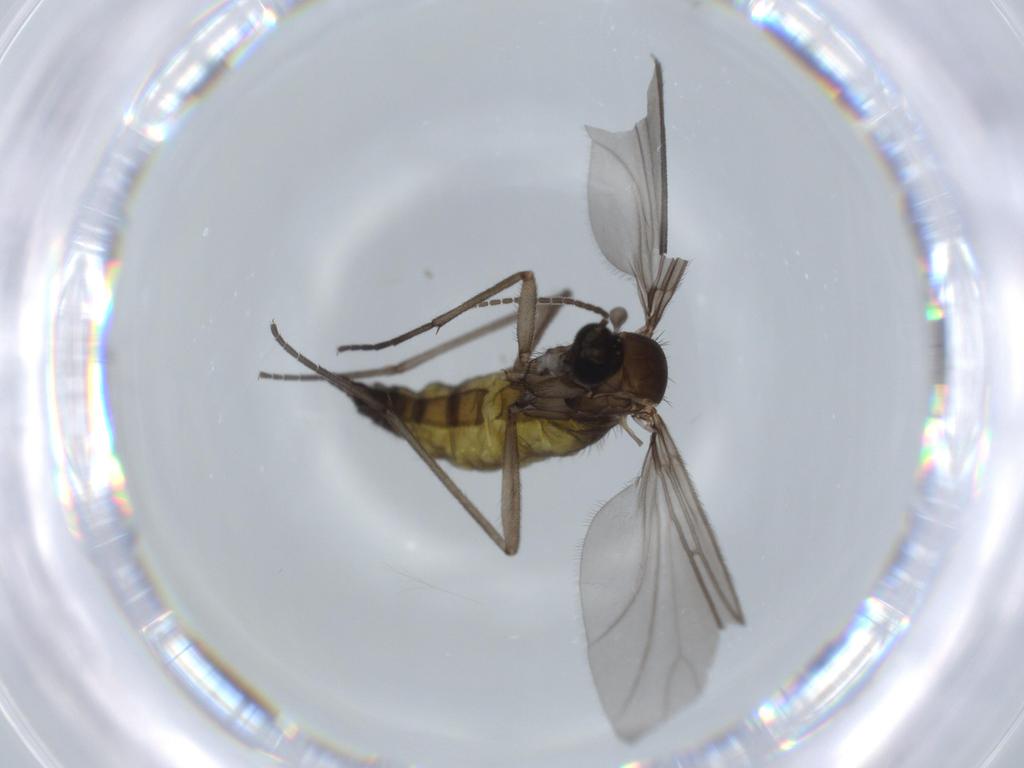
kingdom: Animalia
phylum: Arthropoda
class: Insecta
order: Diptera
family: Sciaridae
